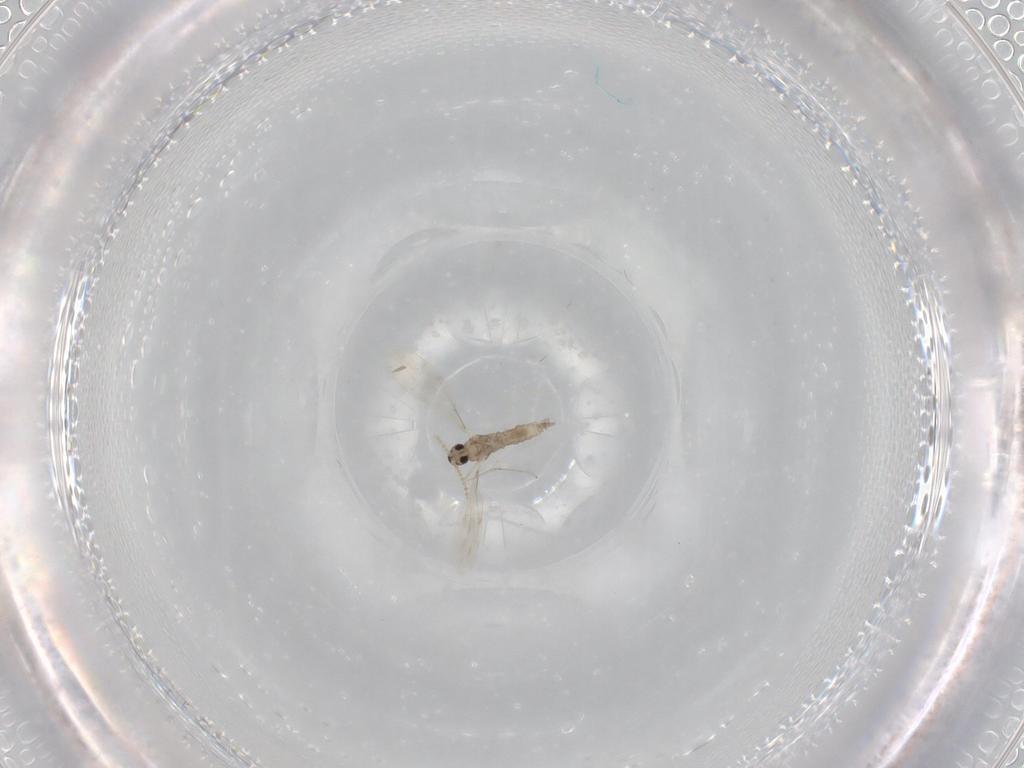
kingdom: Animalia
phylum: Arthropoda
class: Insecta
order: Diptera
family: Cecidomyiidae
